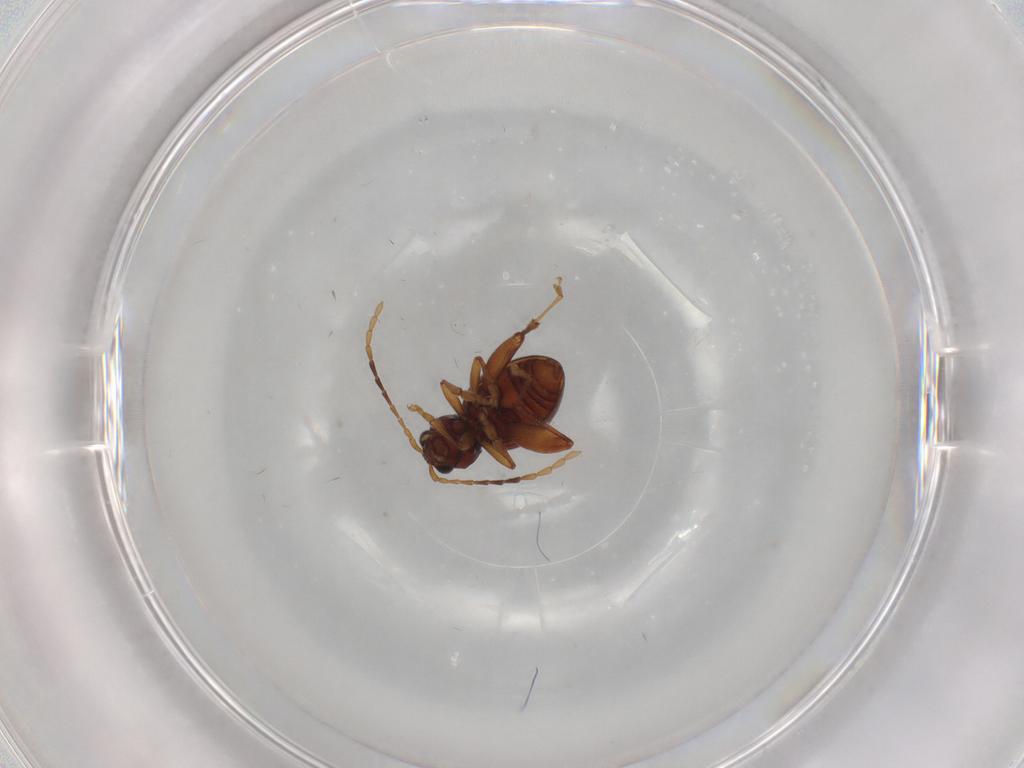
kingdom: Animalia
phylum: Arthropoda
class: Insecta
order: Coleoptera
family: Chrysomelidae
